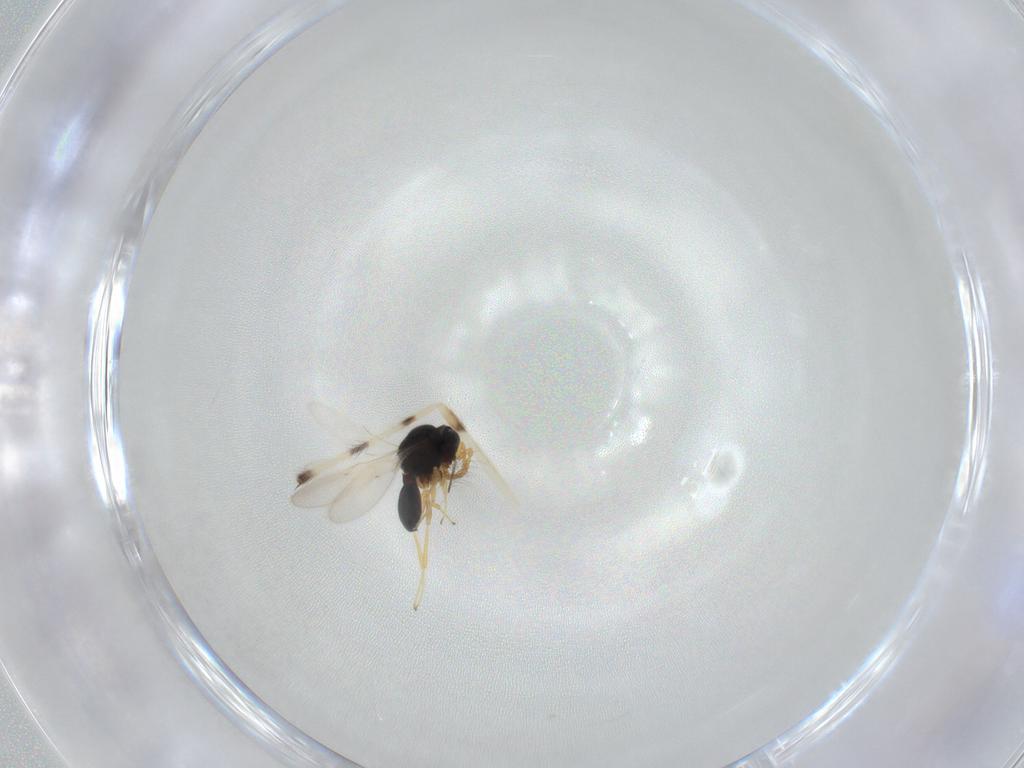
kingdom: Animalia
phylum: Arthropoda
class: Insecta
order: Hymenoptera
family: Scelionidae
